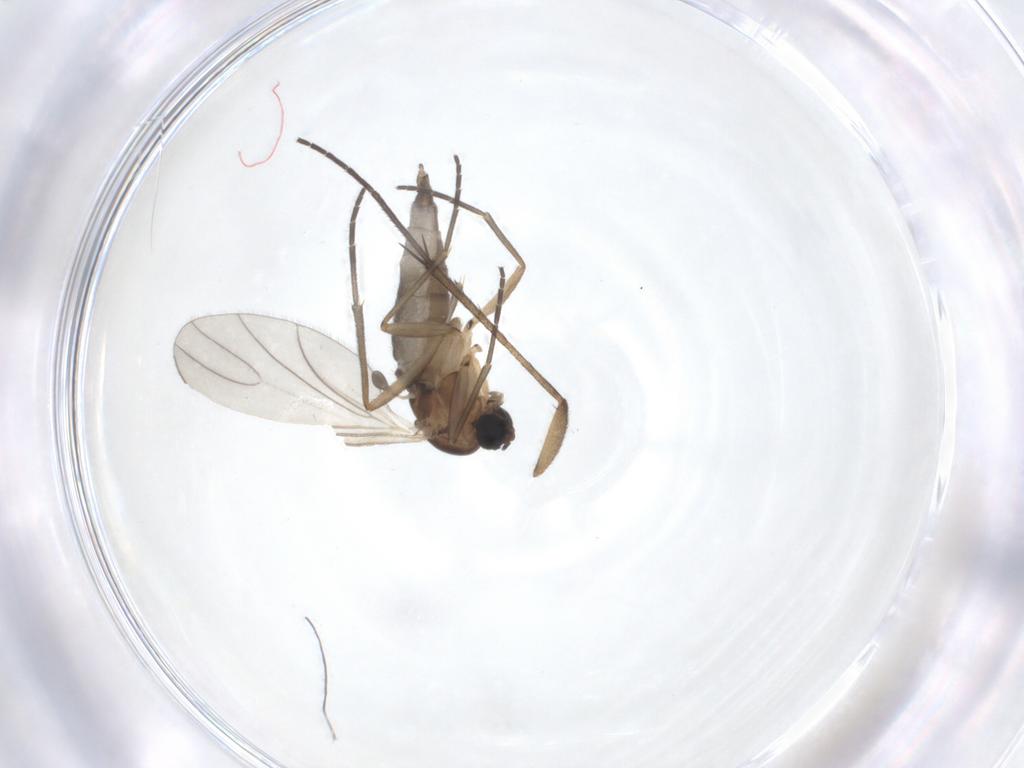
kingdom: Animalia
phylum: Arthropoda
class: Insecta
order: Diptera
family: Sciaridae
